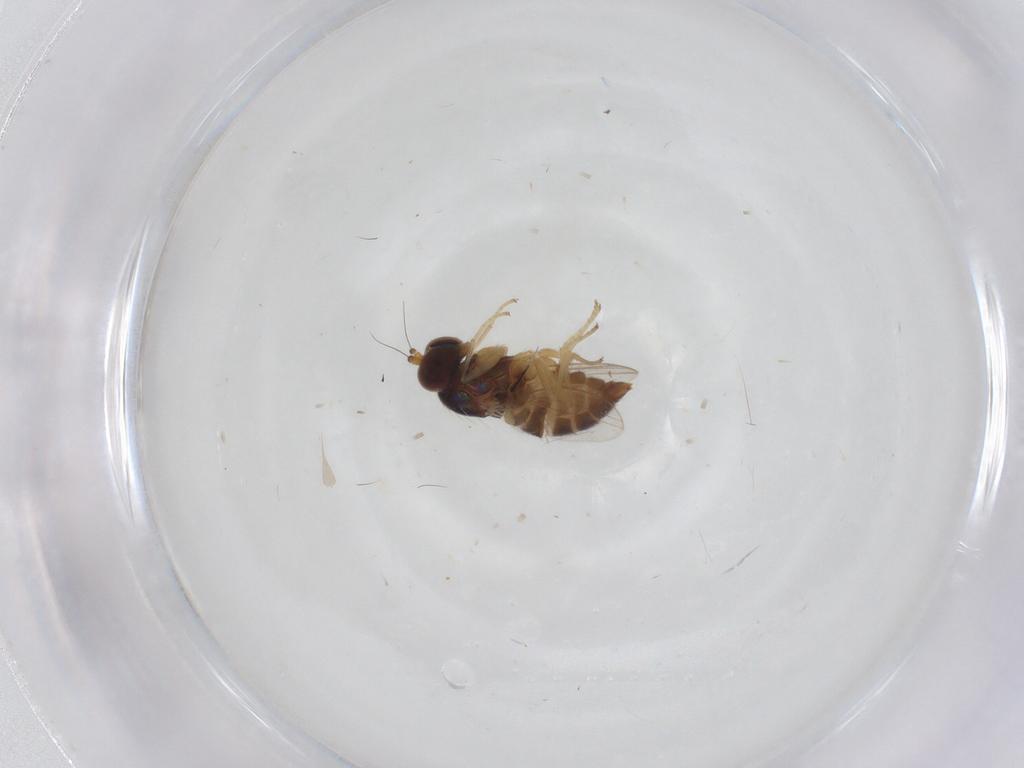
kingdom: Animalia
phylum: Arthropoda
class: Insecta
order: Diptera
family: Dolichopodidae
